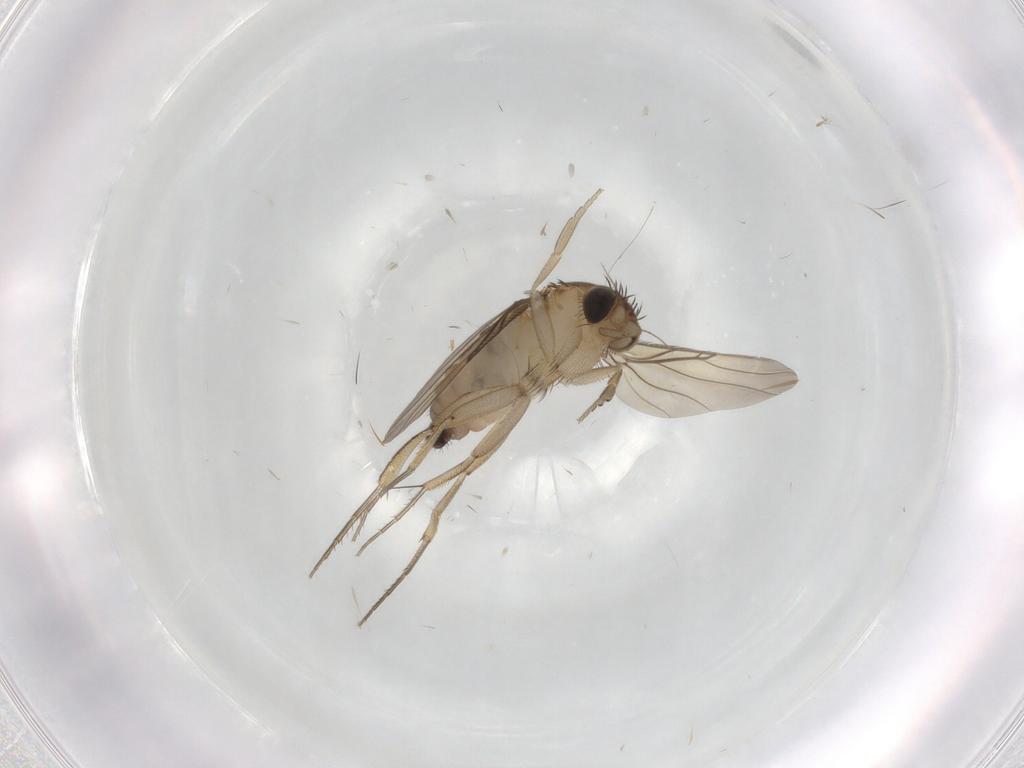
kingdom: Animalia
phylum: Arthropoda
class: Insecta
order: Diptera
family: Phoridae
